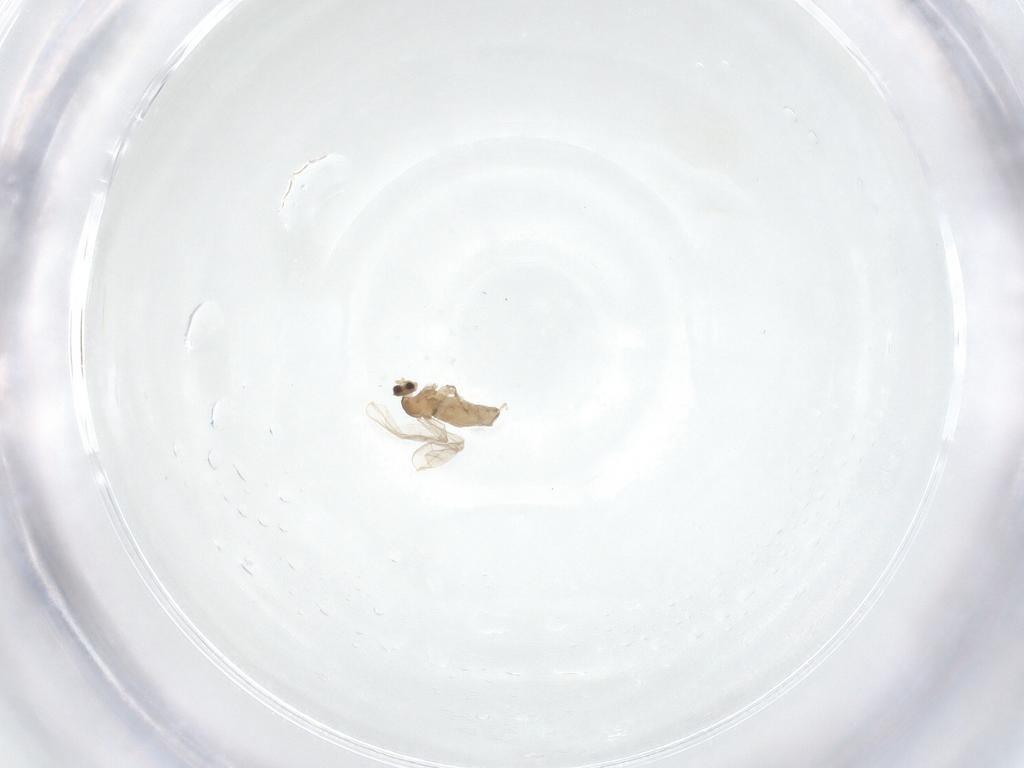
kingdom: Animalia
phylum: Arthropoda
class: Insecta
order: Diptera
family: Cecidomyiidae
